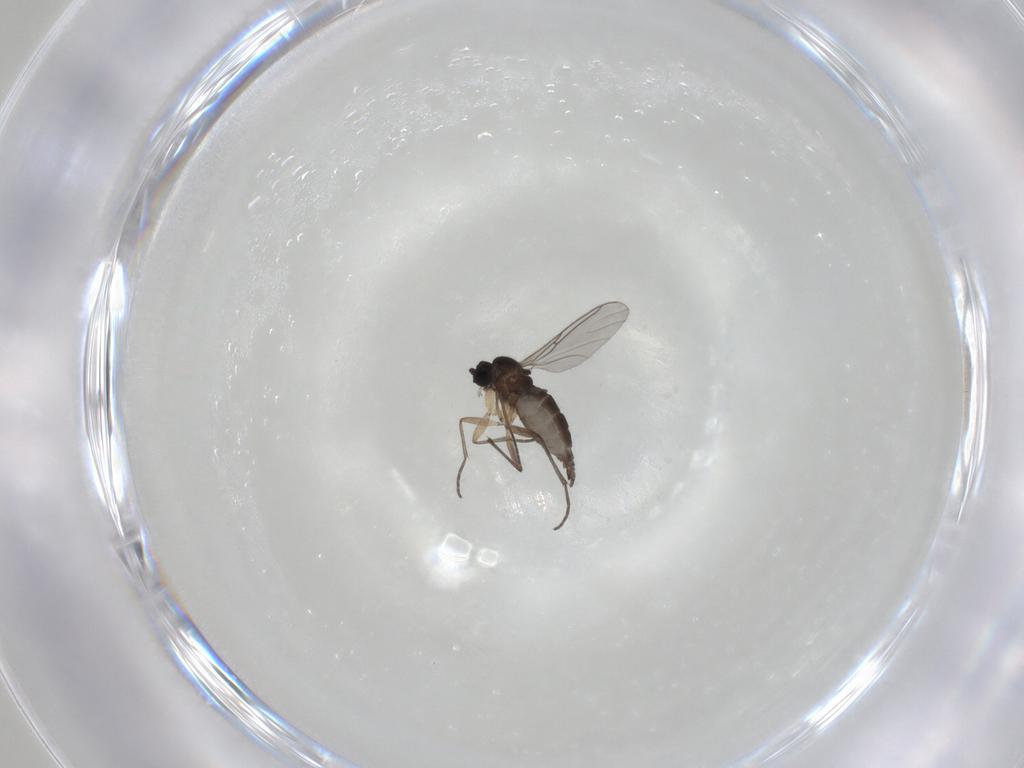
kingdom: Animalia
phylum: Arthropoda
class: Insecta
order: Diptera
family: Sciaridae
